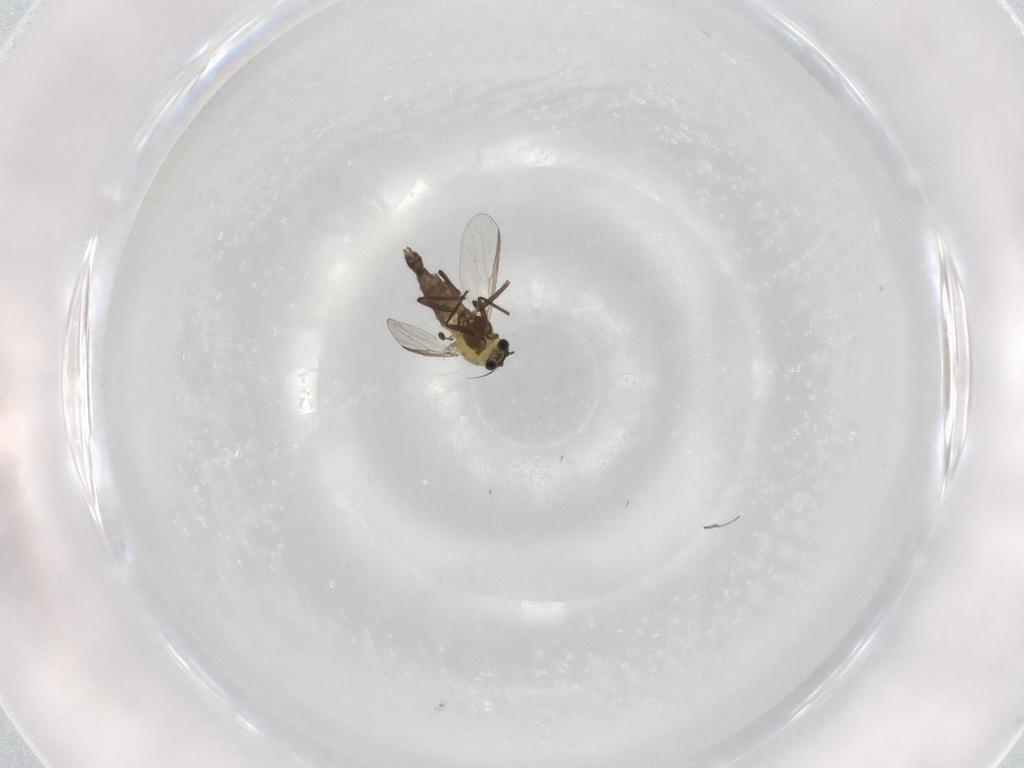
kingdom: Animalia
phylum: Arthropoda
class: Insecta
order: Diptera
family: Chironomidae
